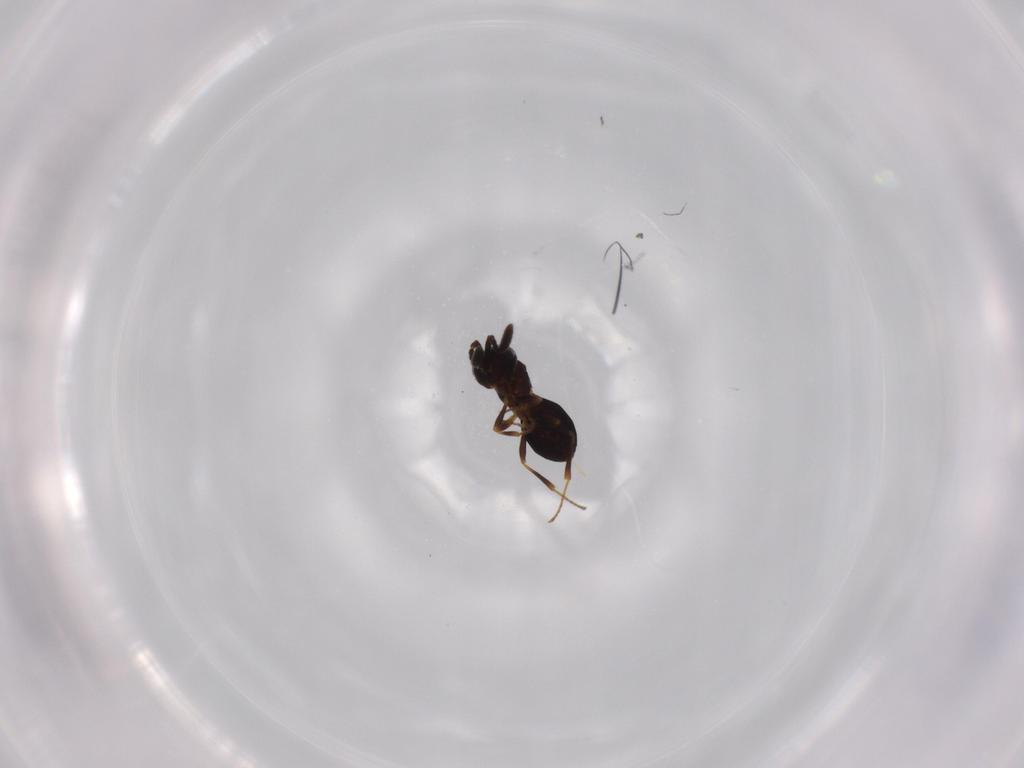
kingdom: Animalia
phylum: Arthropoda
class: Insecta
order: Hymenoptera
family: Scelionidae
